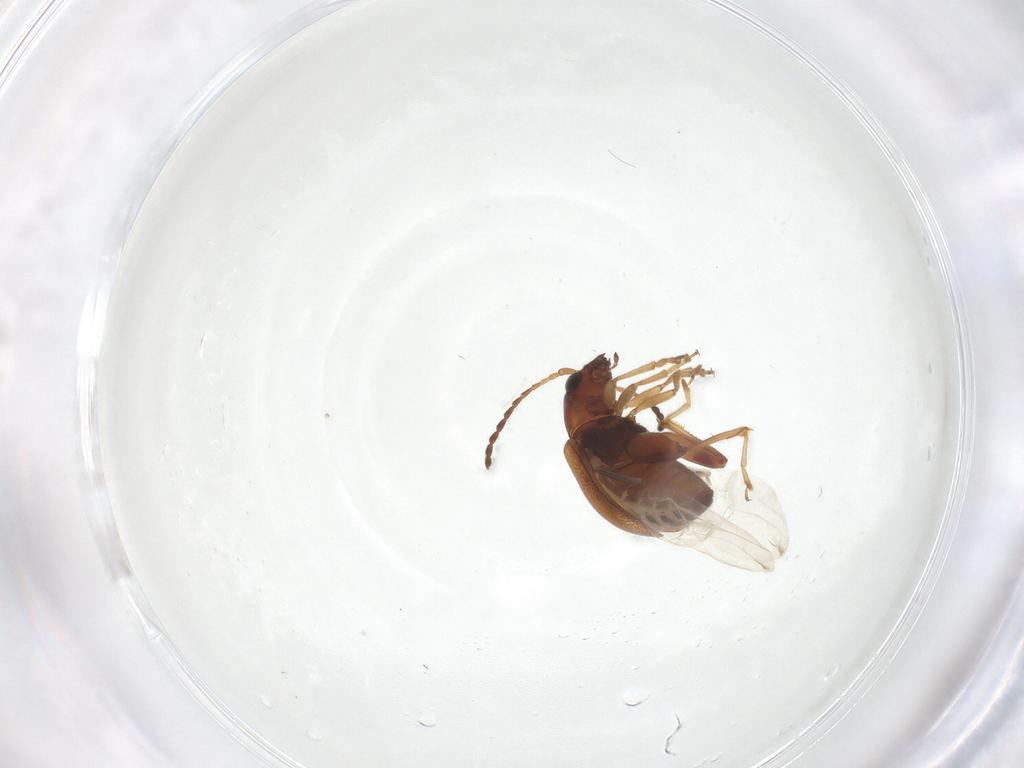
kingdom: Animalia
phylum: Arthropoda
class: Insecta
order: Coleoptera
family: Chrysomelidae
